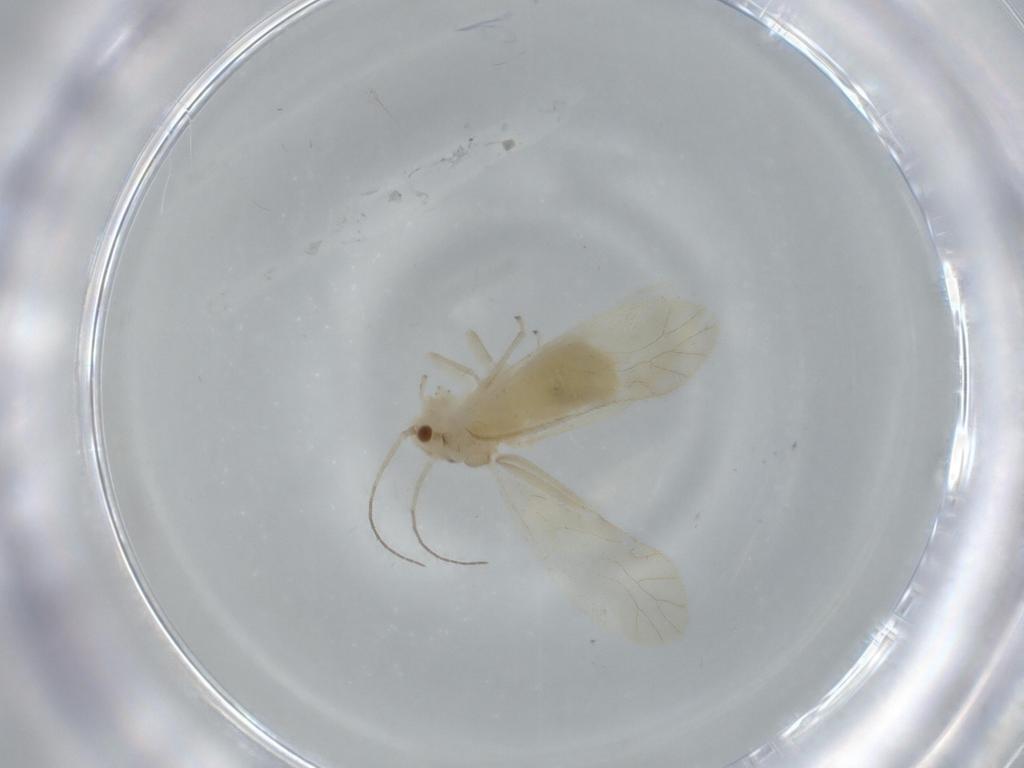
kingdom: Animalia
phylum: Arthropoda
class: Insecta
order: Psocodea
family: Caeciliusidae
